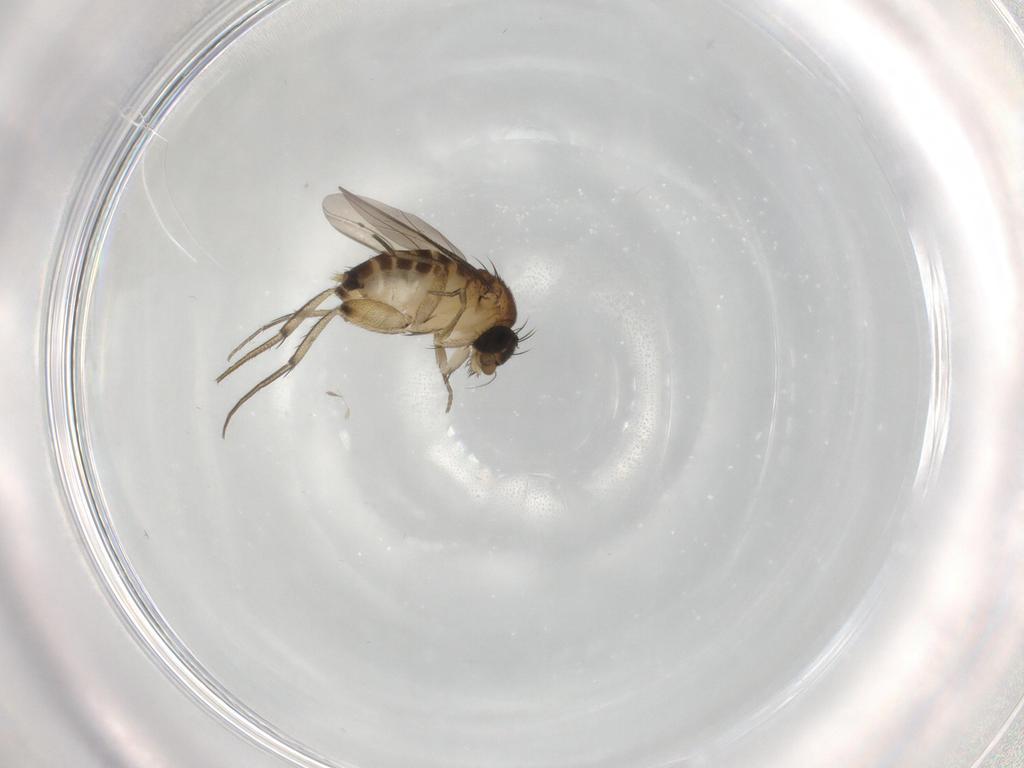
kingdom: Animalia
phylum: Arthropoda
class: Insecta
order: Diptera
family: Phoridae
